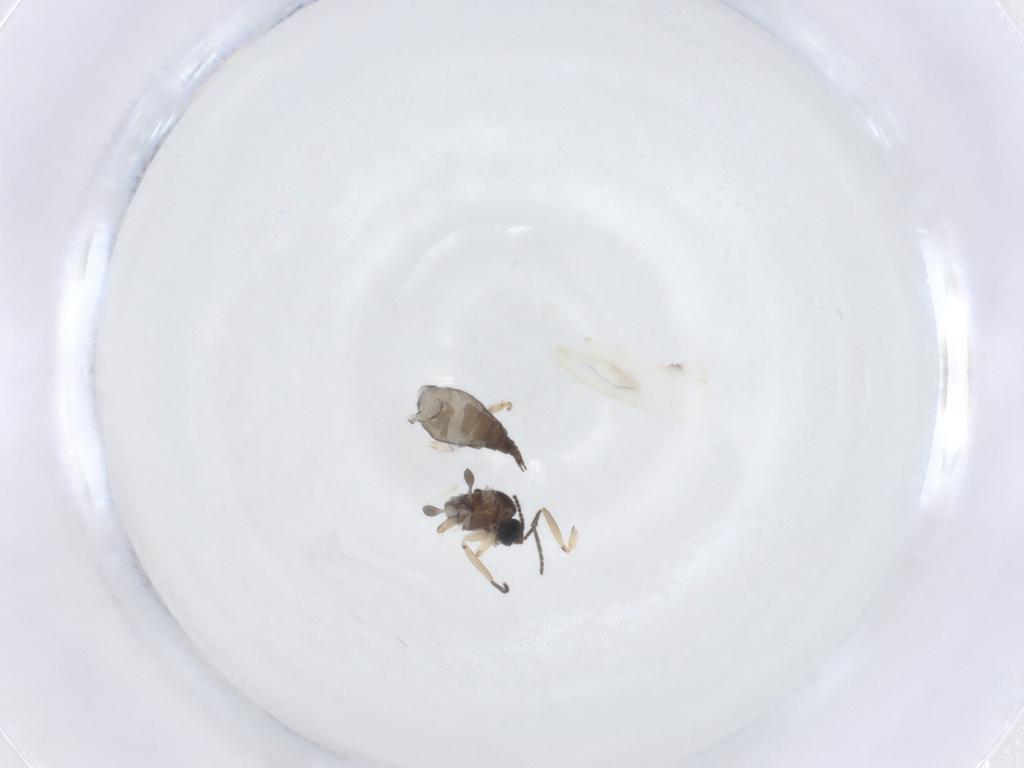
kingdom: Animalia
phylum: Arthropoda
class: Insecta
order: Diptera
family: Sciaridae
